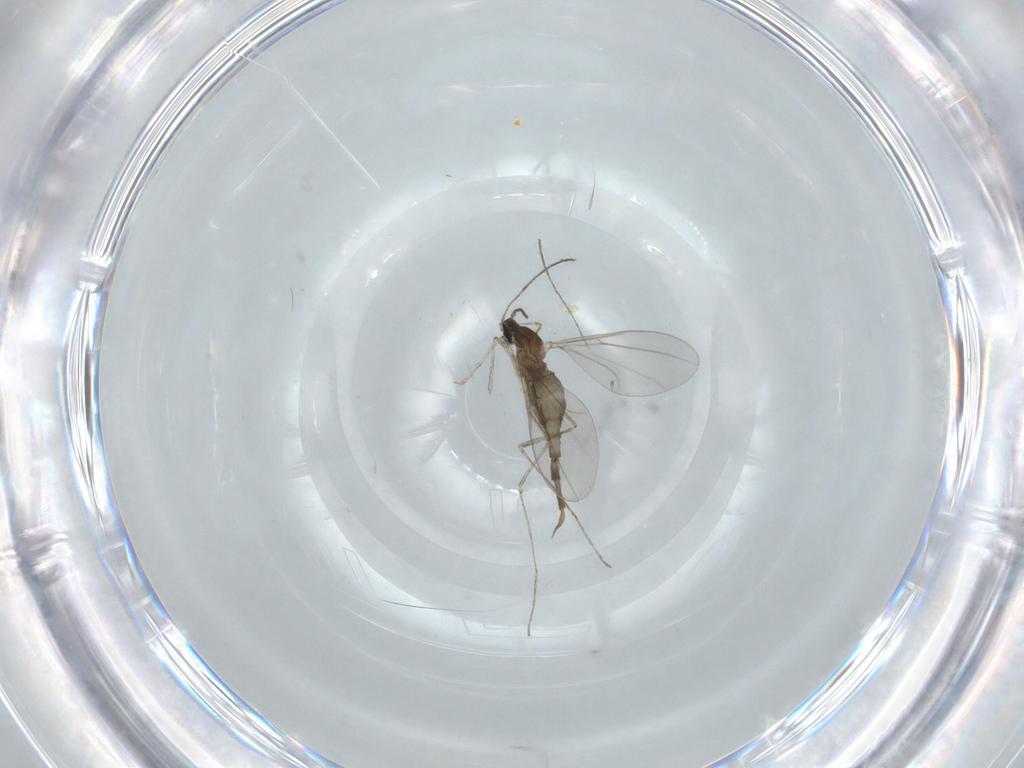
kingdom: Animalia
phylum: Arthropoda
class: Insecta
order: Diptera
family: Cecidomyiidae
